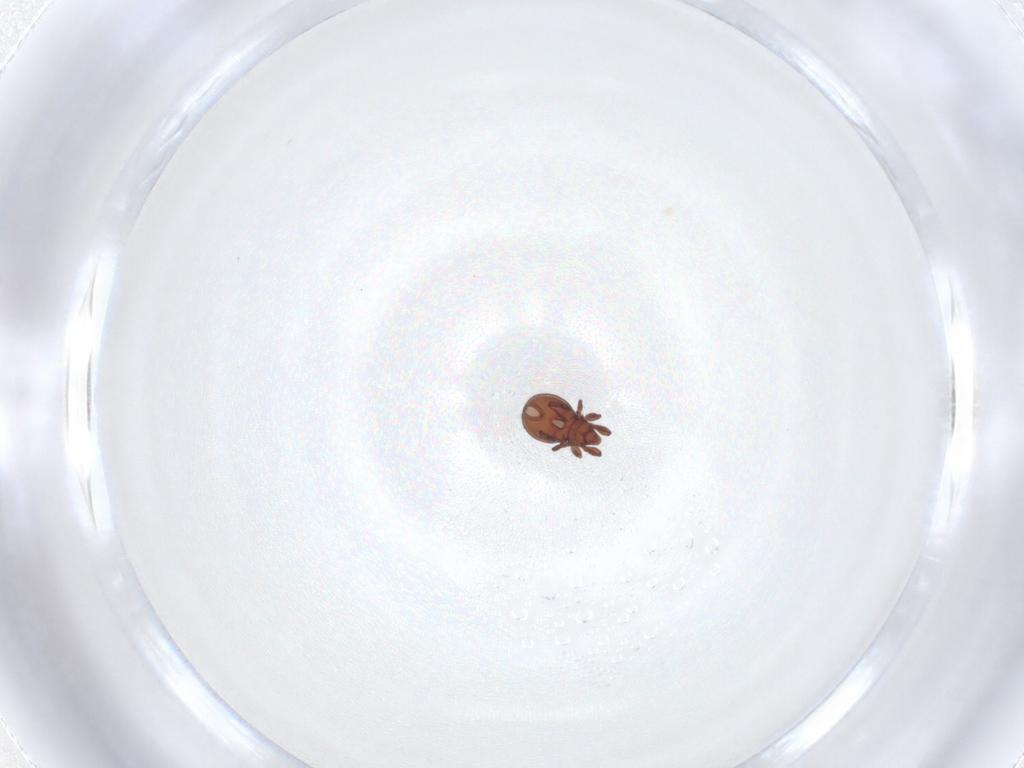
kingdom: Animalia
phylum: Arthropoda
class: Arachnida
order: Sarcoptiformes
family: Eremaeidae
